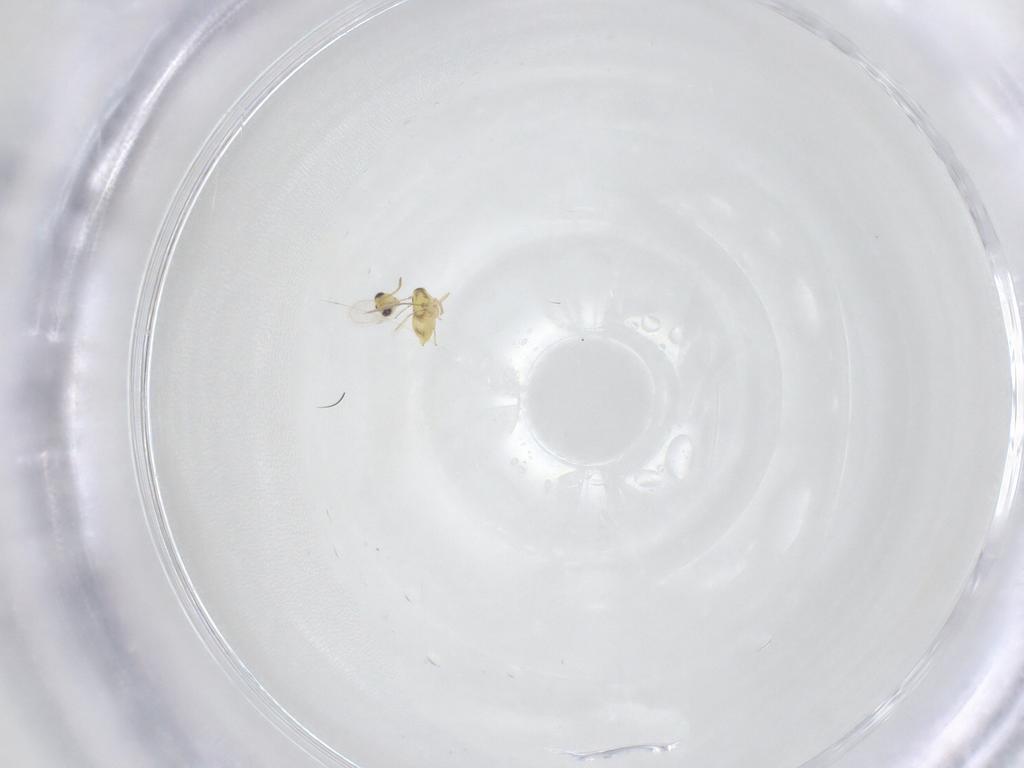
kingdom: Animalia
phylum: Arthropoda
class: Insecta
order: Hymenoptera
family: Aphelinidae
